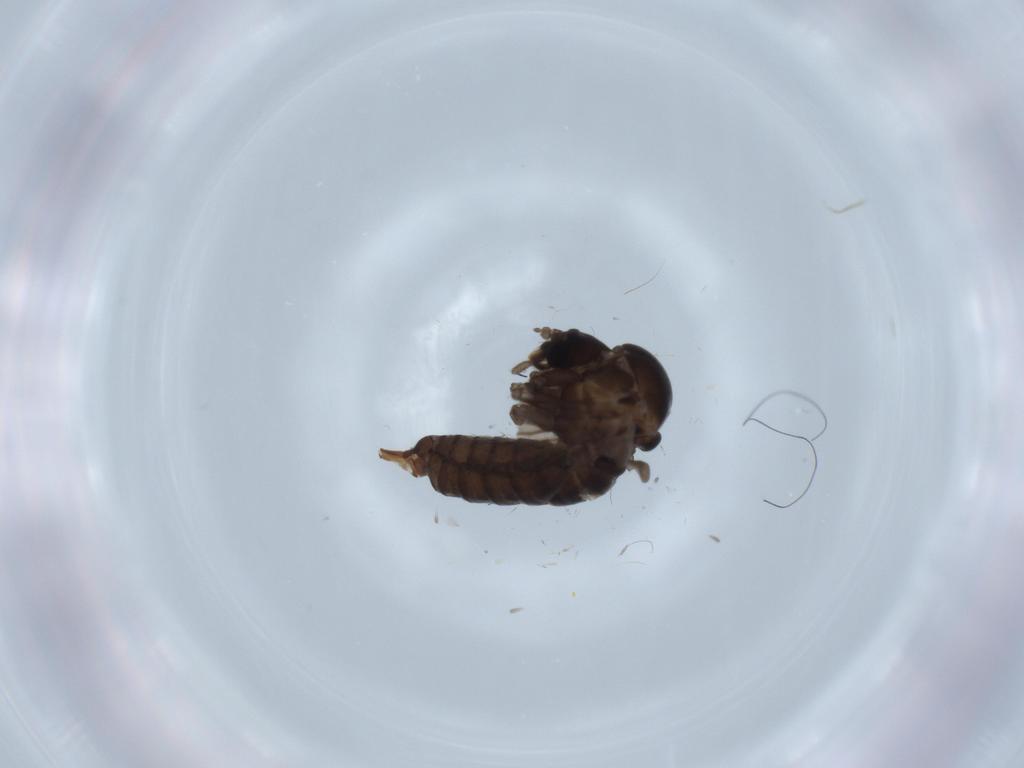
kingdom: Animalia
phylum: Arthropoda
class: Insecta
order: Diptera
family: Psychodidae
